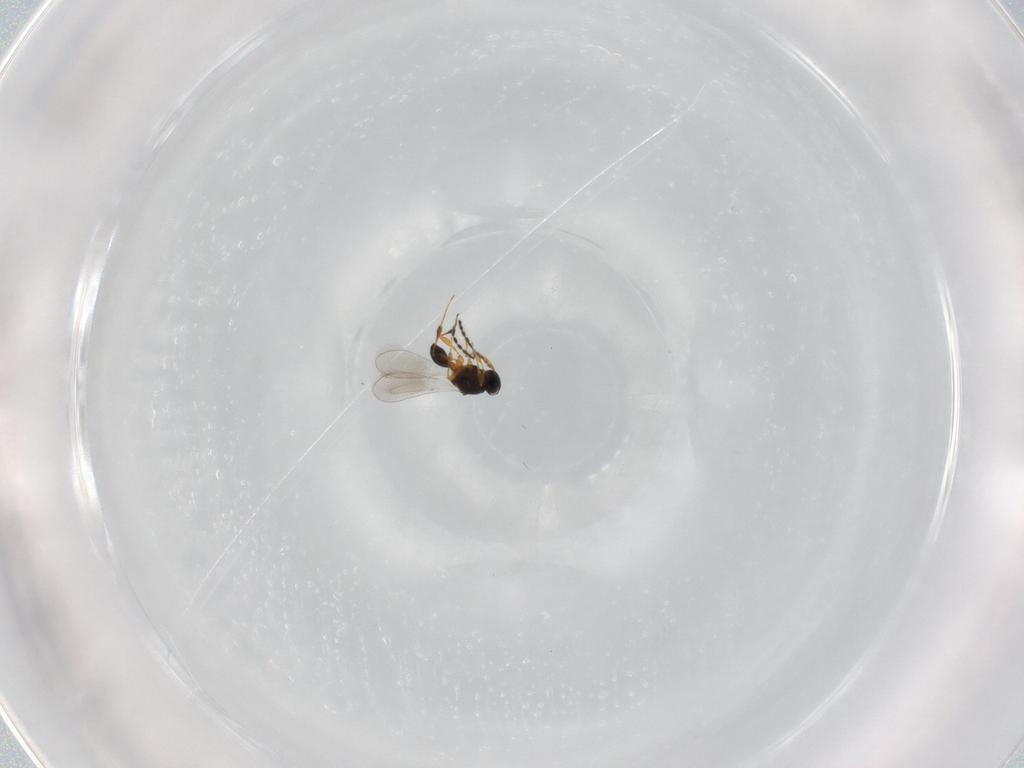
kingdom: Animalia
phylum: Arthropoda
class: Insecta
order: Hymenoptera
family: Platygastridae
